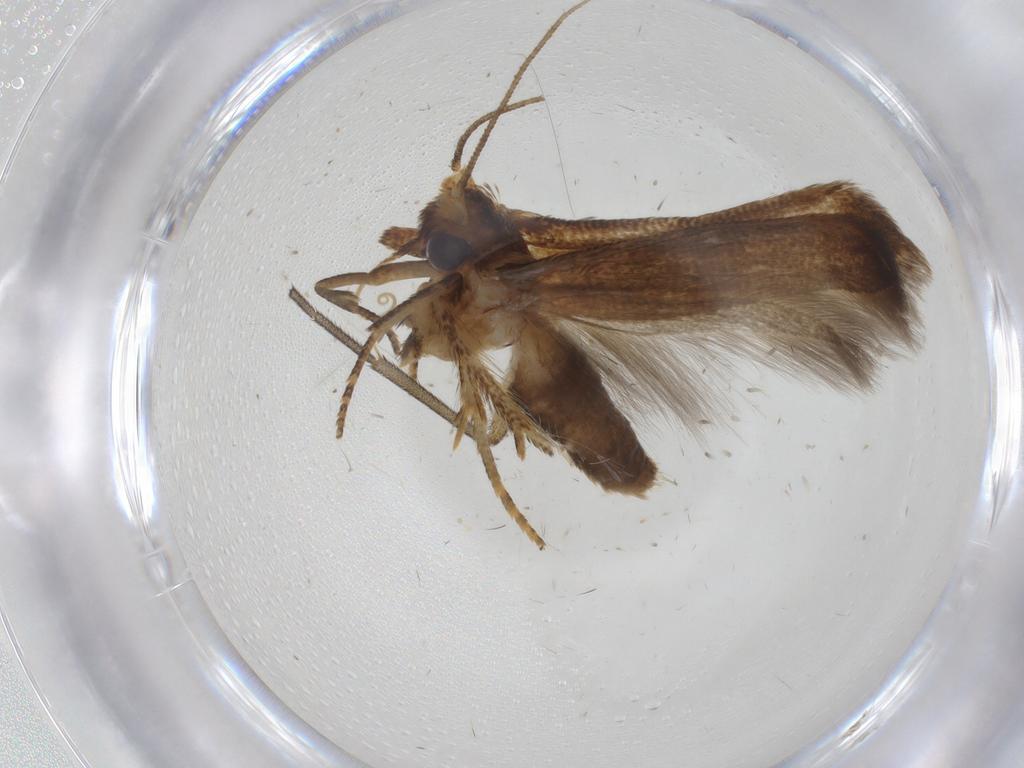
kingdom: Animalia
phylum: Arthropoda
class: Insecta
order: Lepidoptera
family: Blastobasidae
